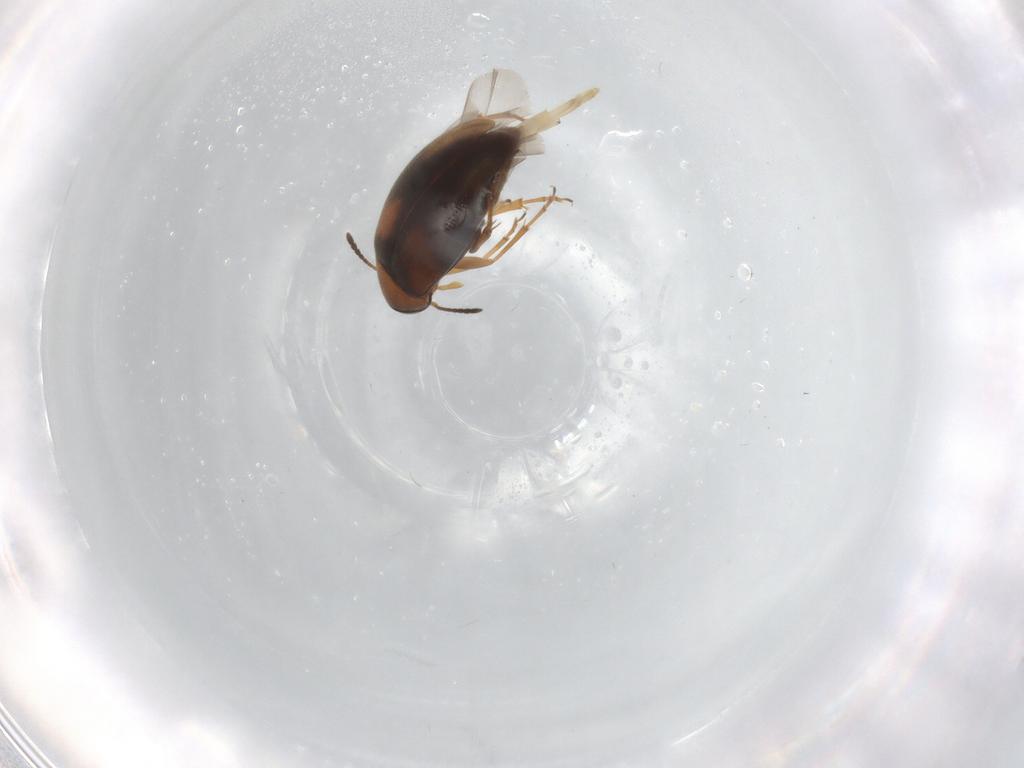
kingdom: Animalia
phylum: Arthropoda
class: Insecta
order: Coleoptera
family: Scraptiidae
